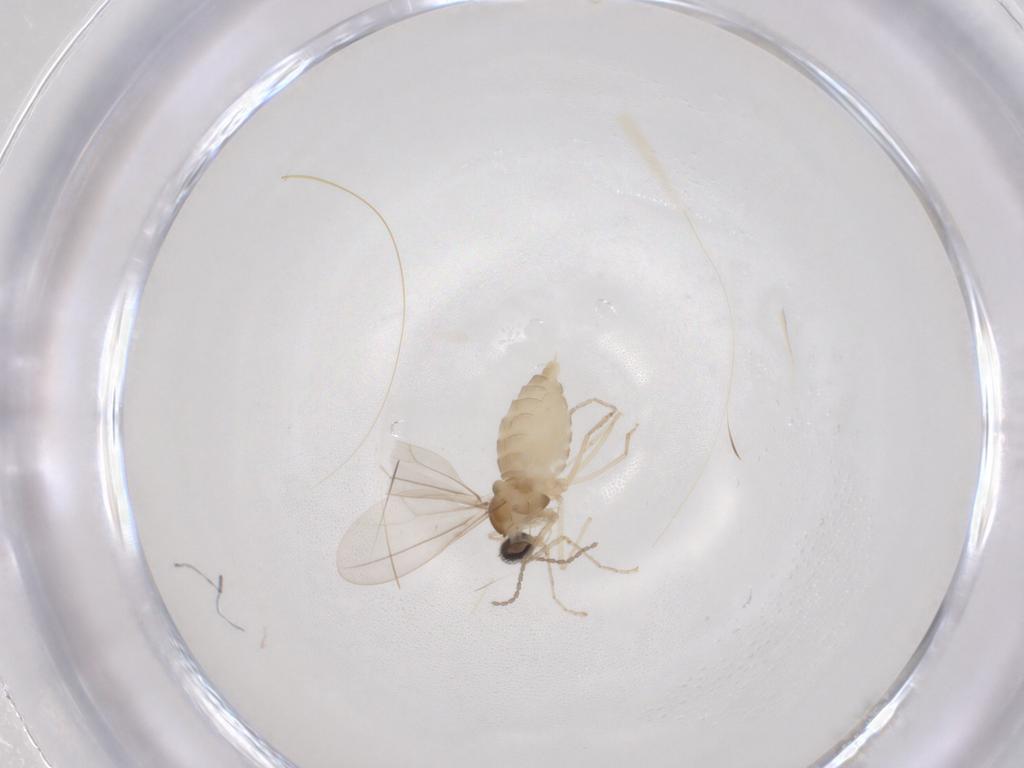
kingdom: Animalia
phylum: Arthropoda
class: Insecta
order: Diptera
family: Cecidomyiidae
